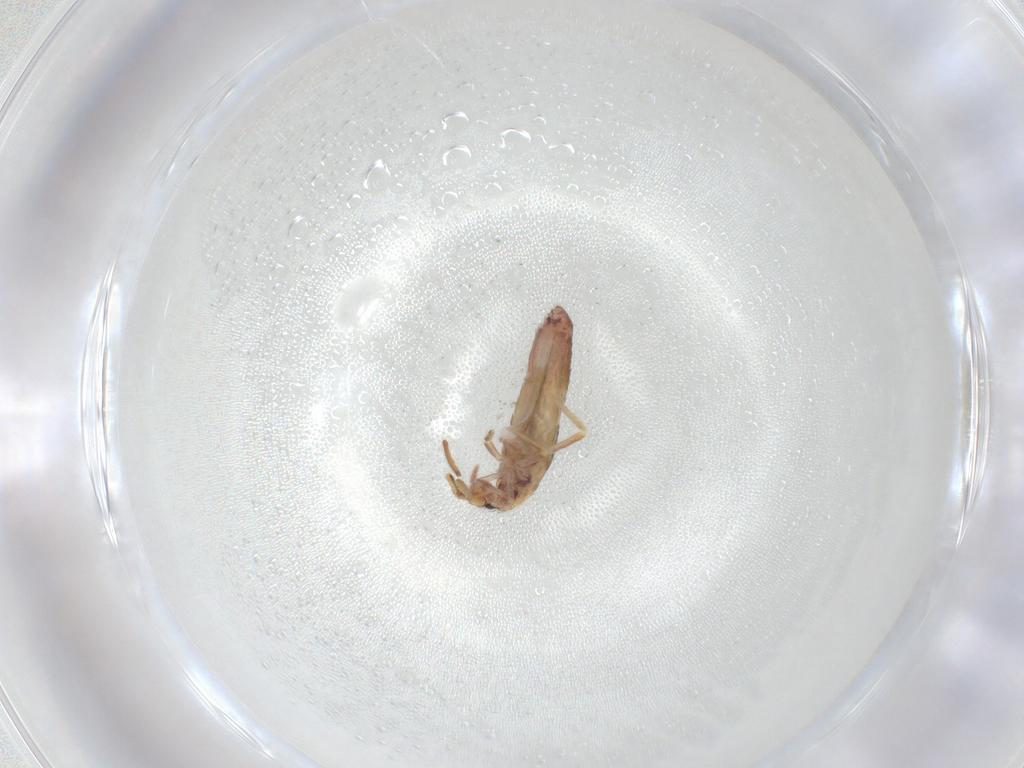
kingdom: Animalia
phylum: Arthropoda
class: Collembola
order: Entomobryomorpha
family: Entomobryidae
